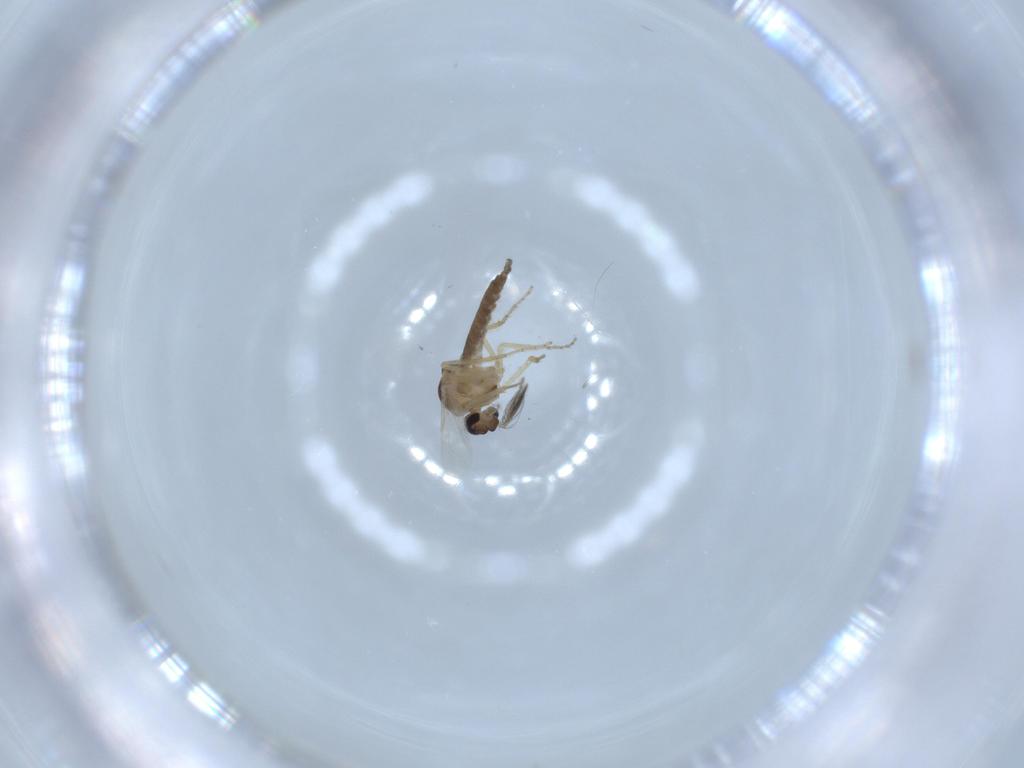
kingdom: Animalia
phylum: Arthropoda
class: Insecta
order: Diptera
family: Ceratopogonidae
